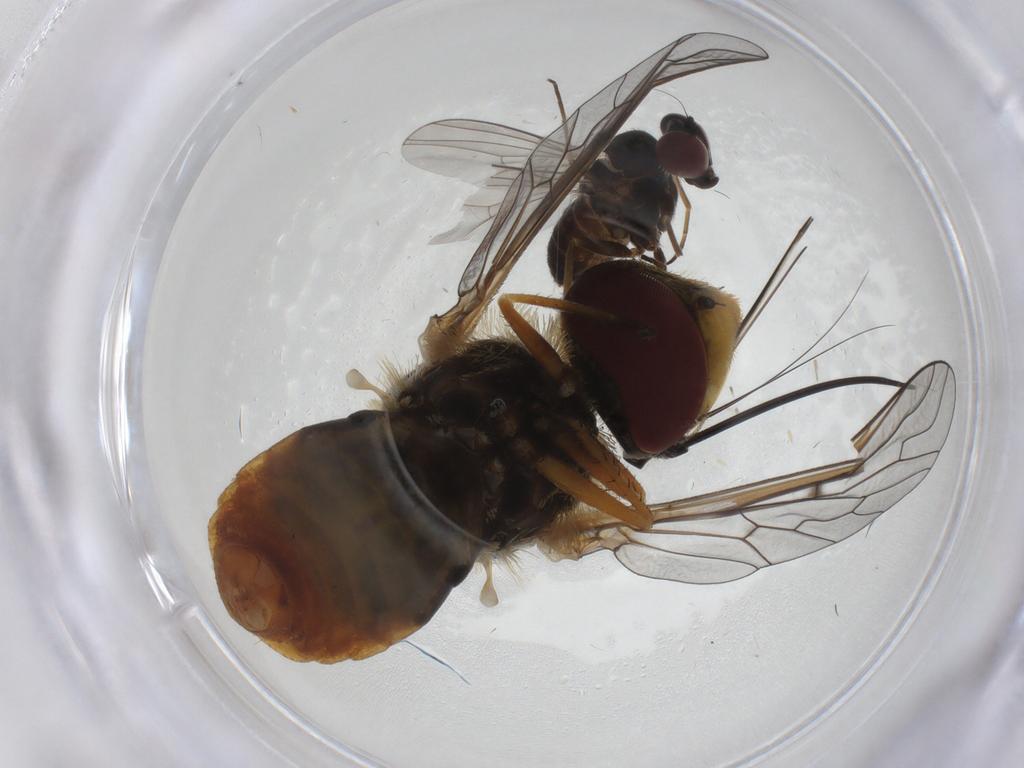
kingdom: Animalia
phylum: Arthropoda
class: Insecta
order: Diptera
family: Dolichopodidae
